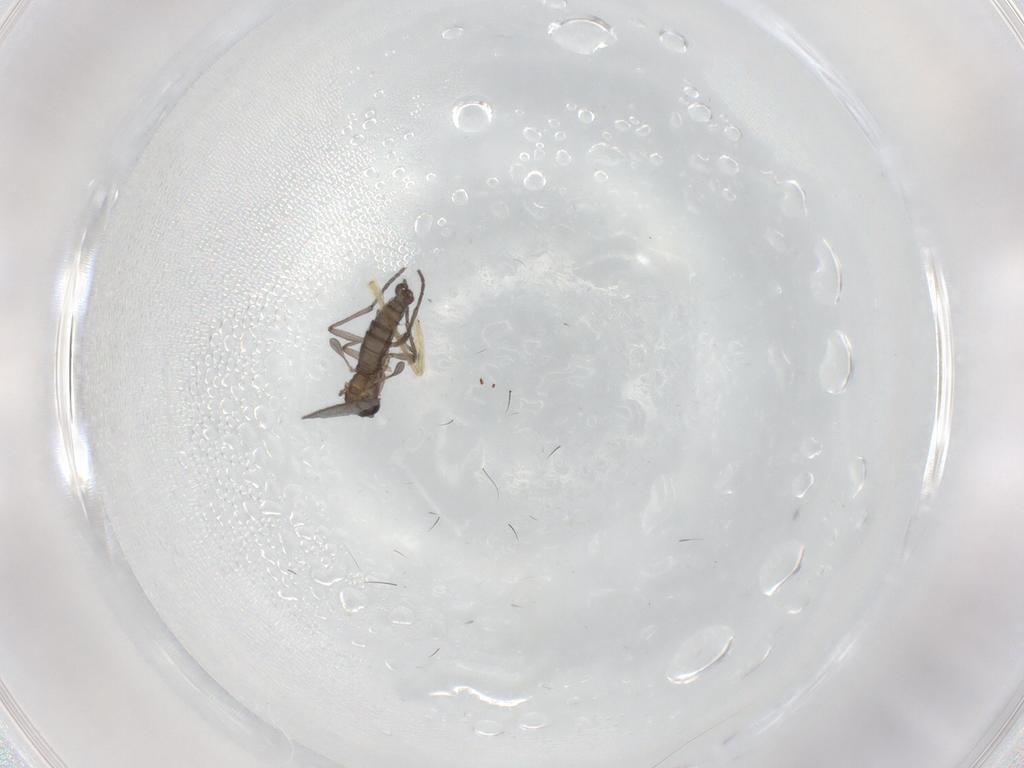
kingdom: Animalia
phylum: Arthropoda
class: Insecta
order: Diptera
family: Sciaridae
